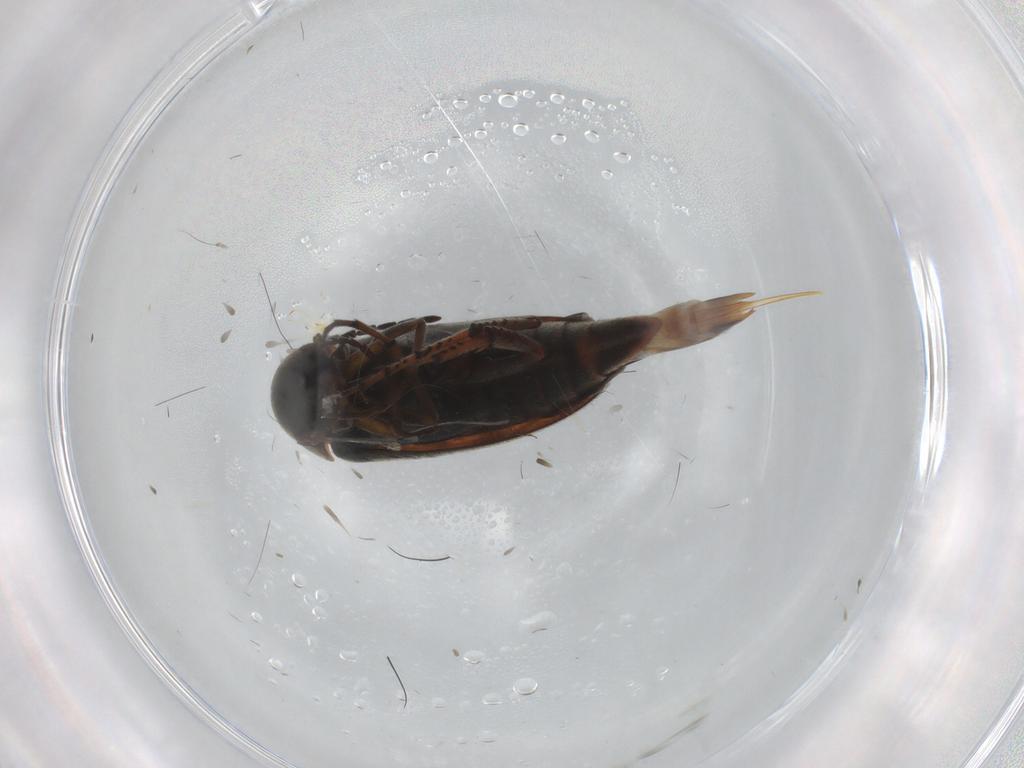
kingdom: Animalia
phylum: Arthropoda
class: Insecta
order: Coleoptera
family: Mordellidae
